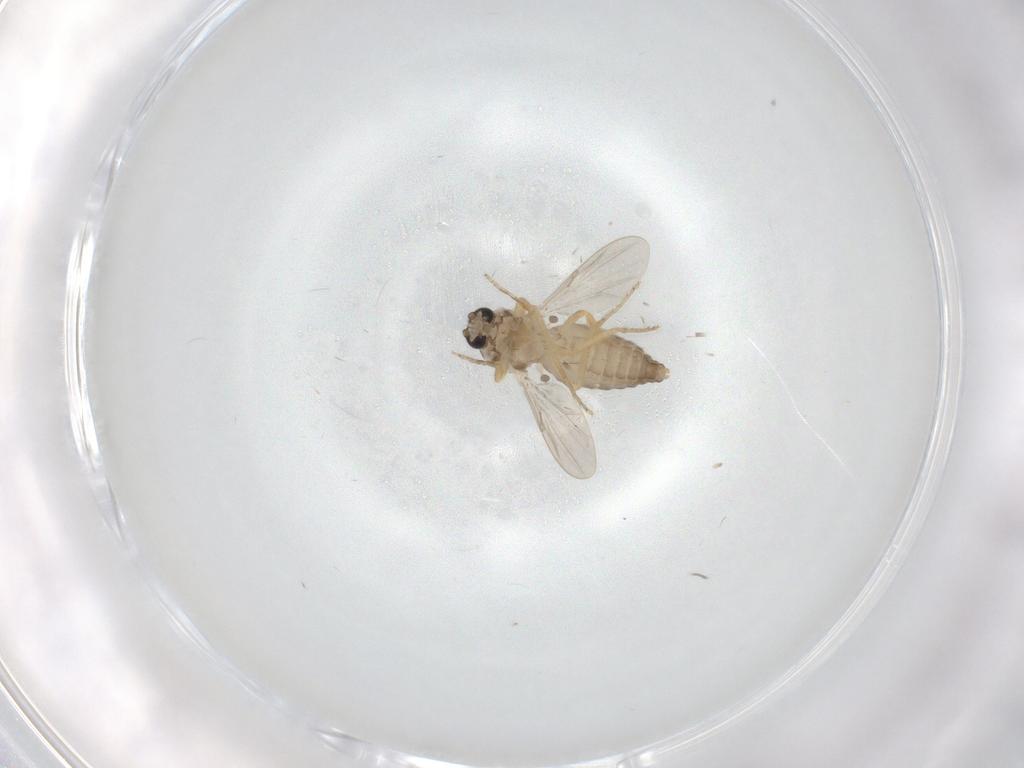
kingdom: Animalia
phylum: Arthropoda
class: Insecta
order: Diptera
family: Ceratopogonidae
